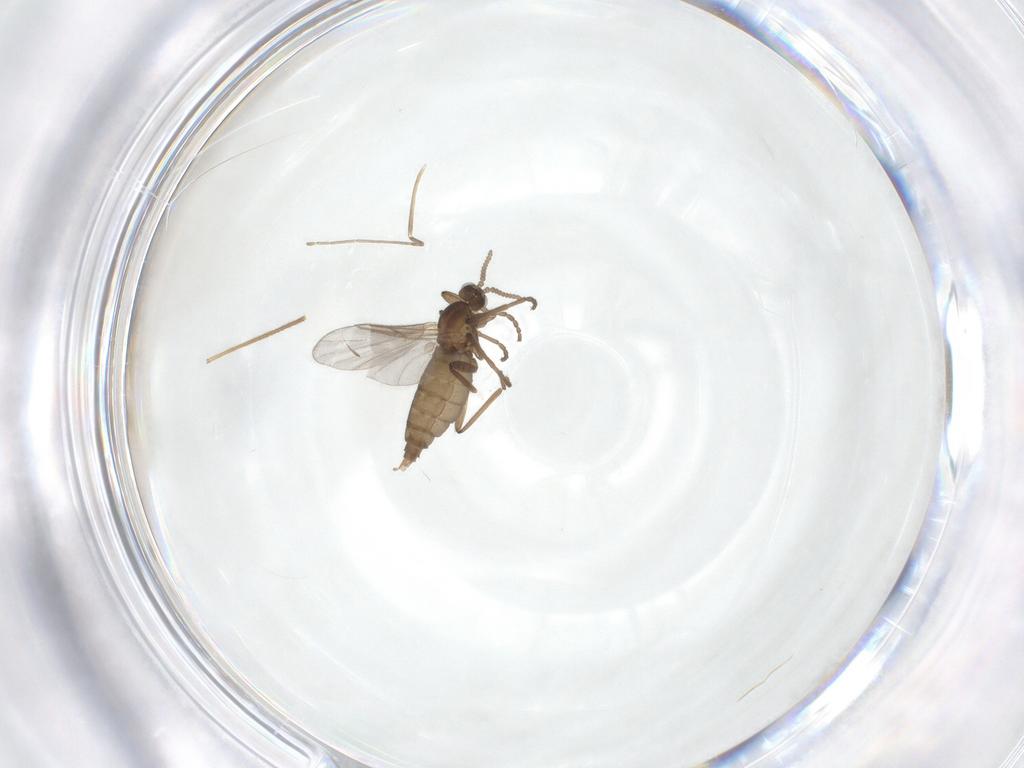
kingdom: Animalia
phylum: Arthropoda
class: Insecta
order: Diptera
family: Cecidomyiidae
